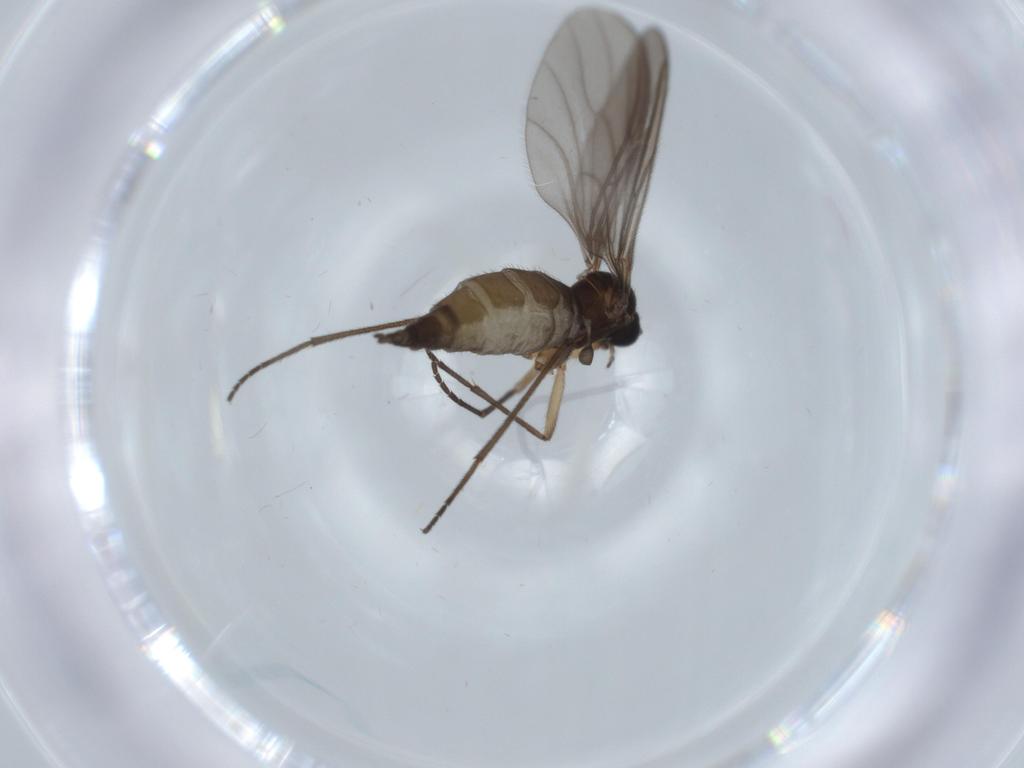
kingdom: Animalia
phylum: Arthropoda
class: Insecta
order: Diptera
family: Sciaridae
